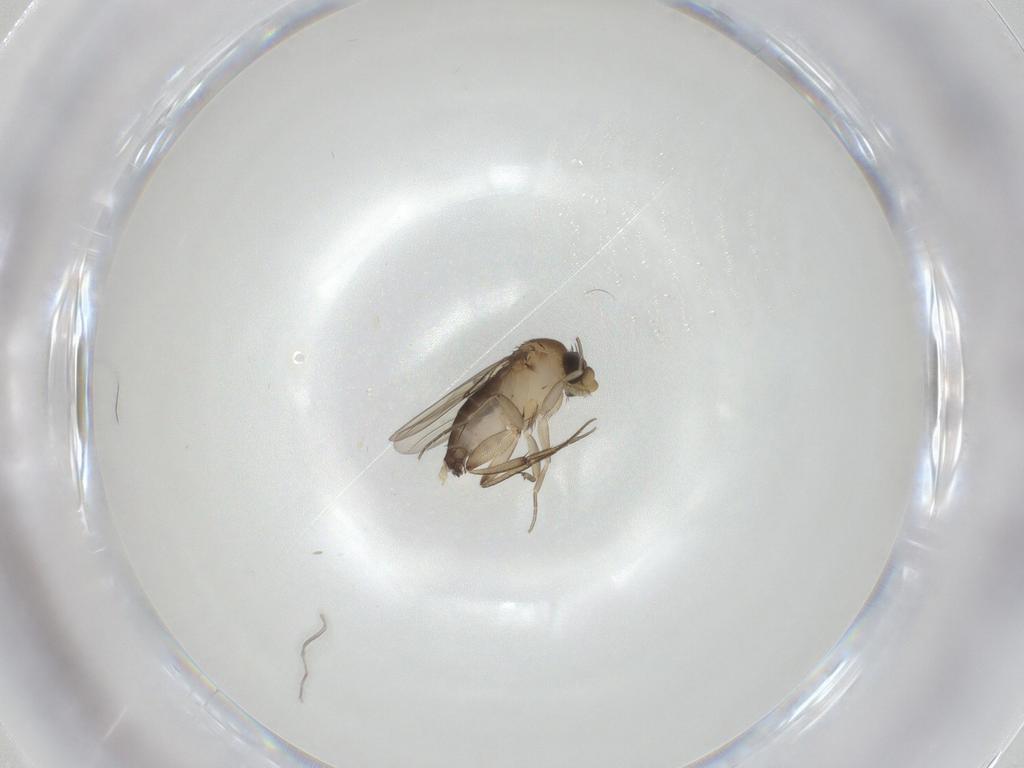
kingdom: Animalia
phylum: Arthropoda
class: Insecta
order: Diptera
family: Phoridae
